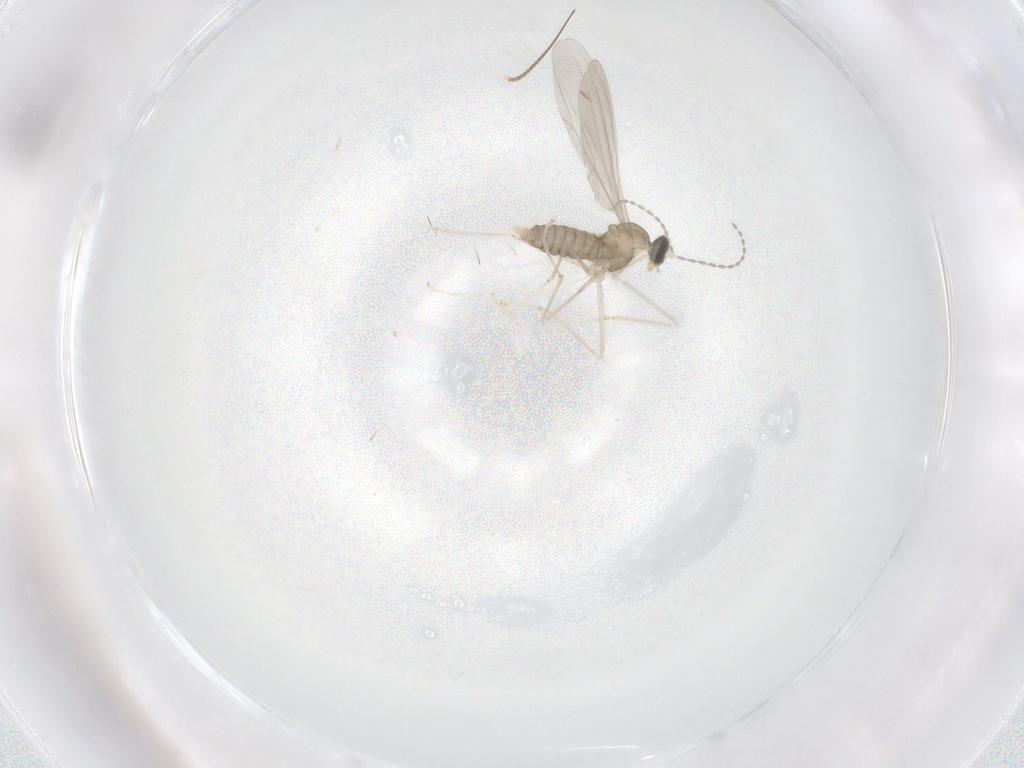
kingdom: Animalia
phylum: Arthropoda
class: Insecta
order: Diptera
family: Cecidomyiidae
